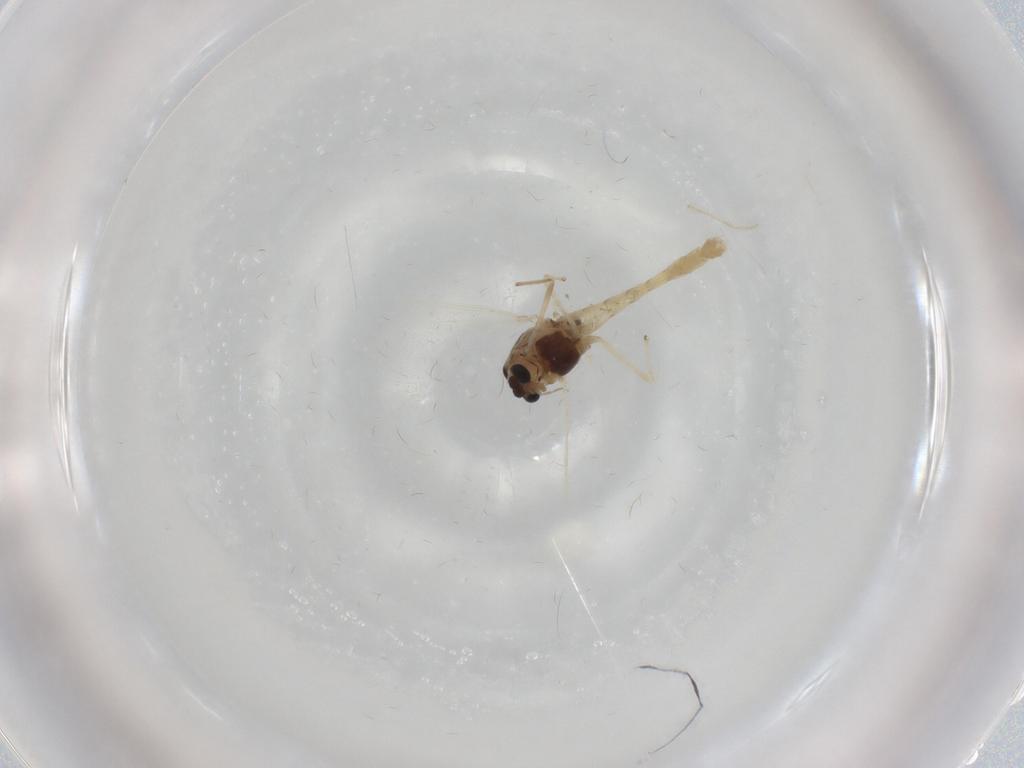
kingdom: Animalia
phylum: Arthropoda
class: Insecta
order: Diptera
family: Chironomidae
